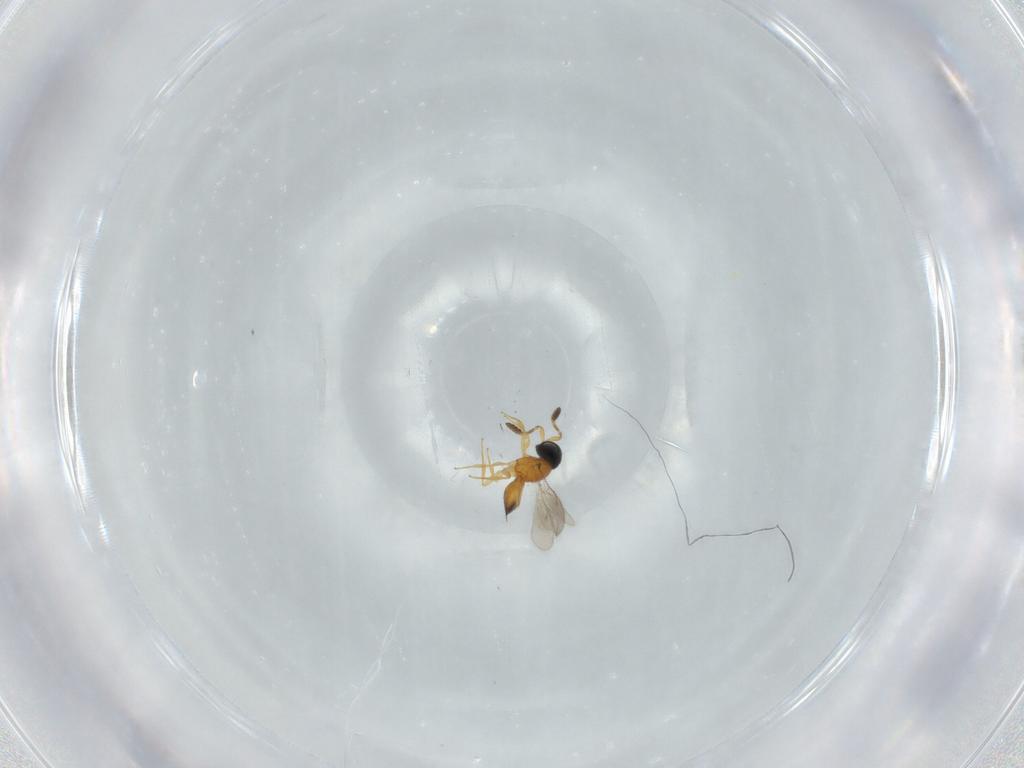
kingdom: Animalia
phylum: Arthropoda
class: Insecta
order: Hymenoptera
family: Scelionidae
